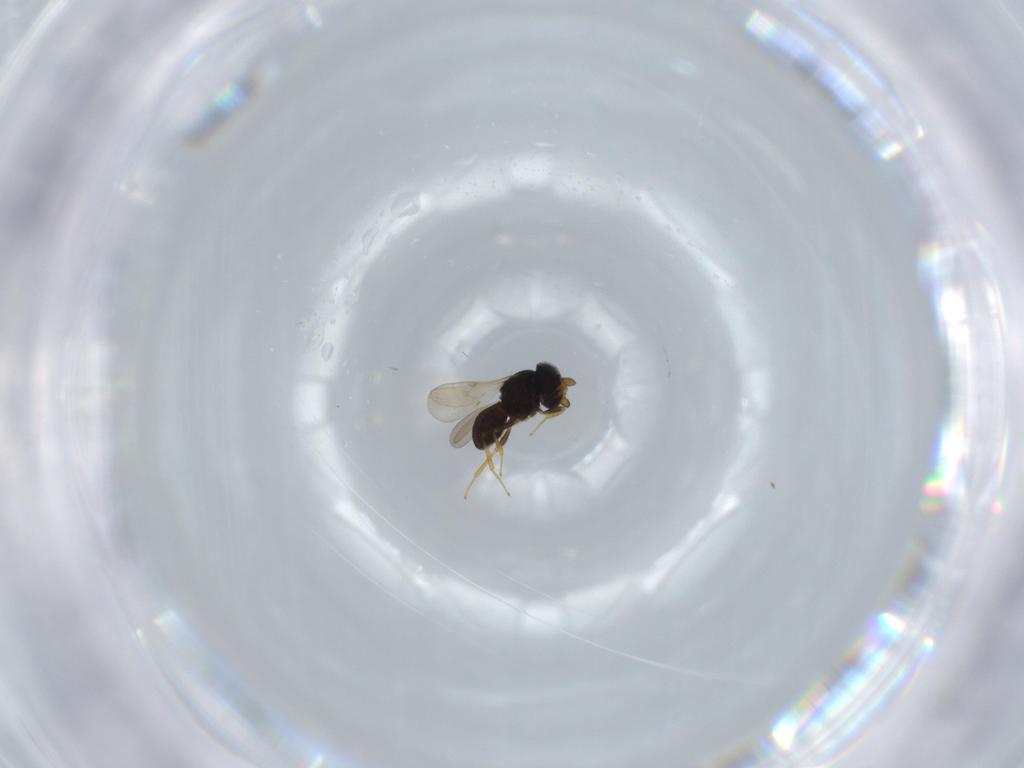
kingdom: Animalia
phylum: Arthropoda
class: Insecta
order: Hymenoptera
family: Scelionidae
